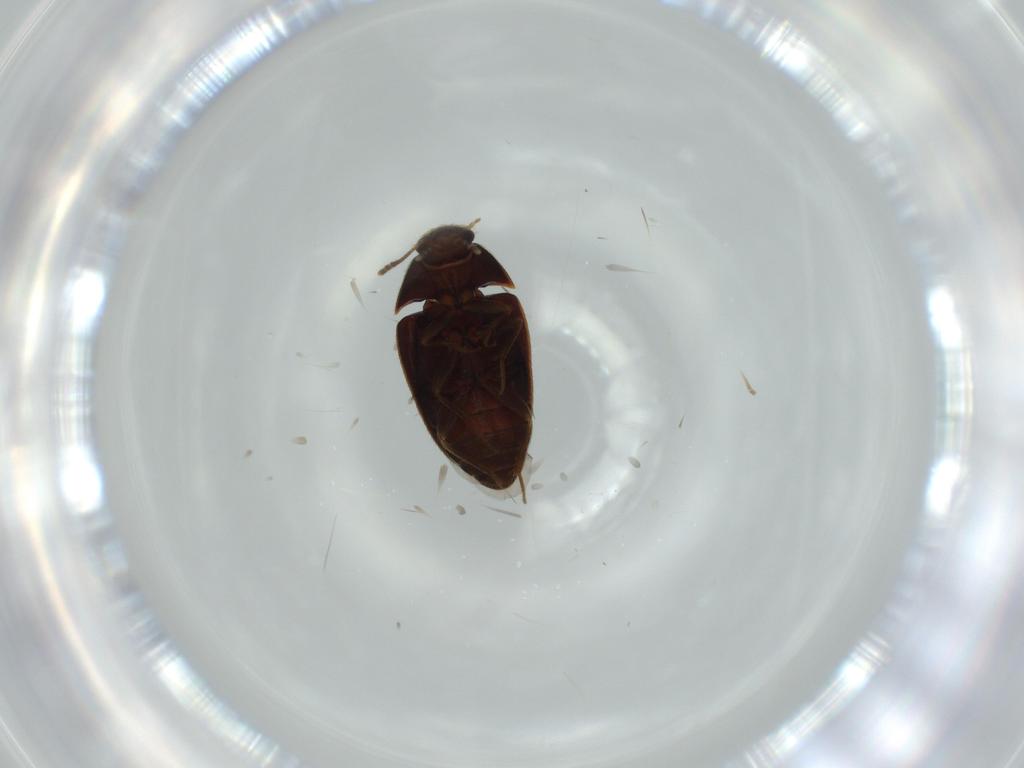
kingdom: Animalia
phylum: Arthropoda
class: Insecta
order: Coleoptera
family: Mycetophagidae
